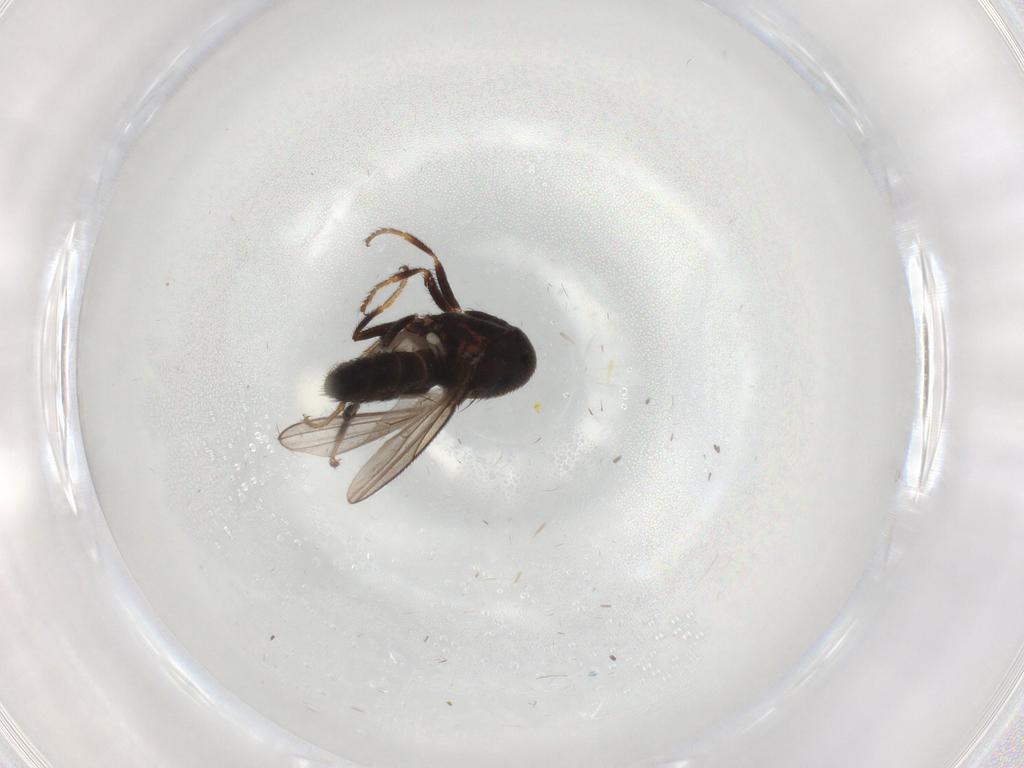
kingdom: Animalia
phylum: Arthropoda
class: Insecta
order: Diptera
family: Ephydridae
